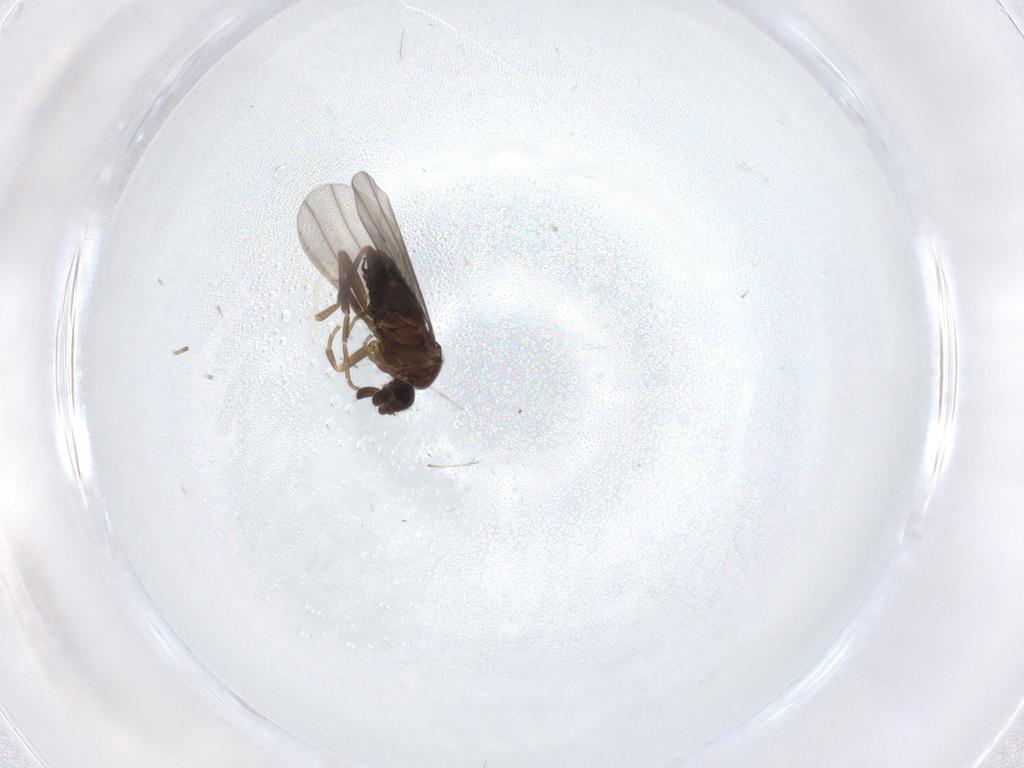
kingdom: Animalia
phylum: Arthropoda
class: Insecta
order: Diptera
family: Phoridae
